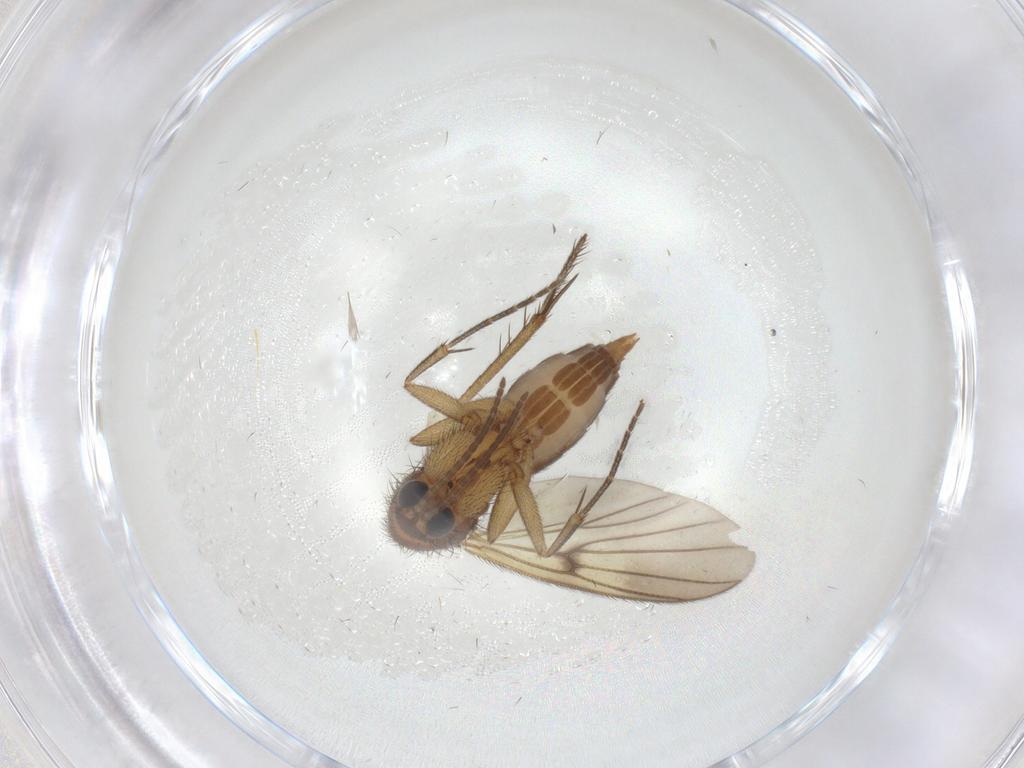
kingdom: Animalia
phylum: Arthropoda
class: Insecta
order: Diptera
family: Mycetophilidae
